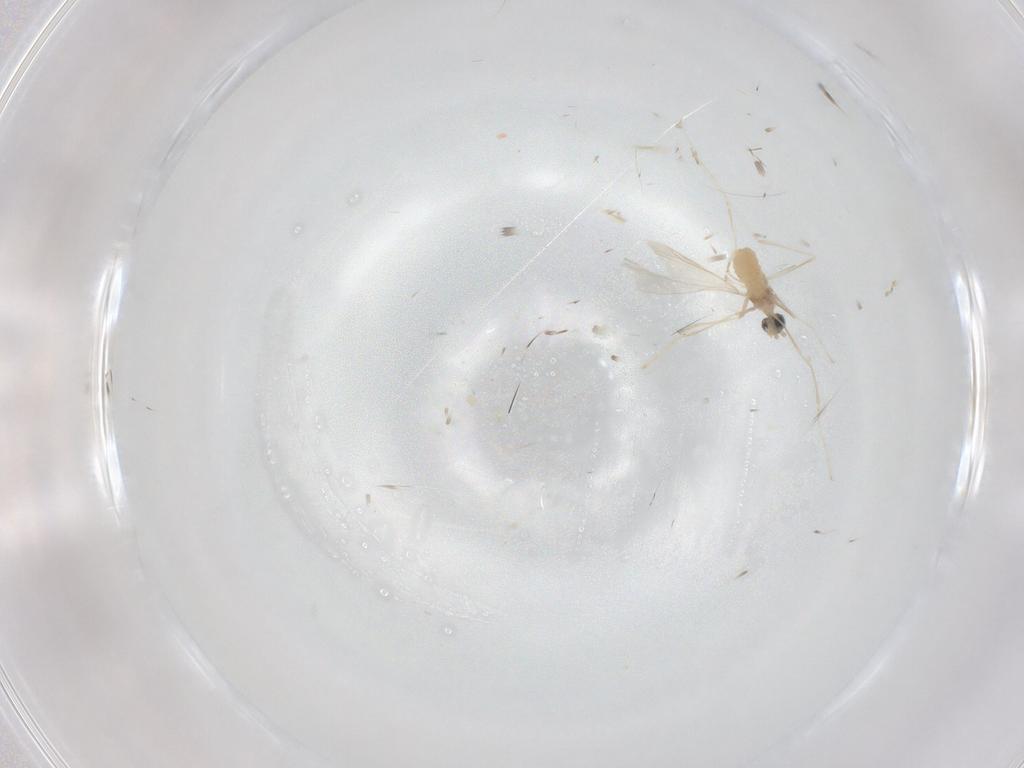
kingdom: Animalia
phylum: Arthropoda
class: Insecta
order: Diptera
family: Cecidomyiidae
